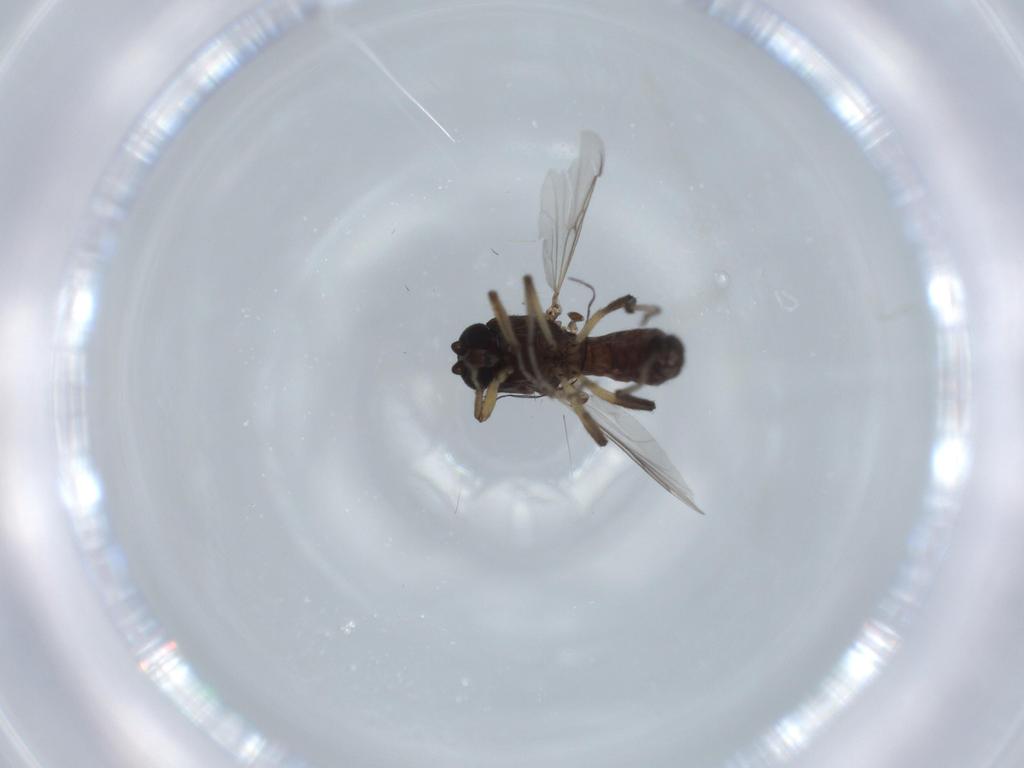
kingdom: Animalia
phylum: Arthropoda
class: Insecta
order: Diptera
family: Ceratopogonidae
